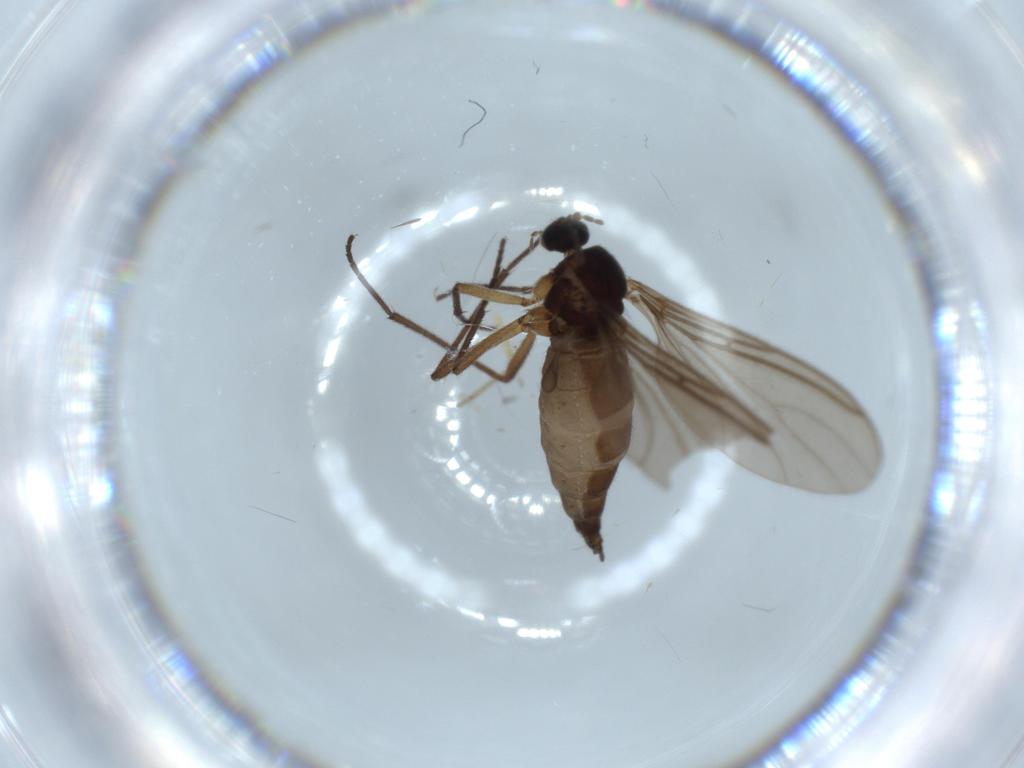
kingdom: Animalia
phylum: Arthropoda
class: Insecta
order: Diptera
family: Sciaridae
